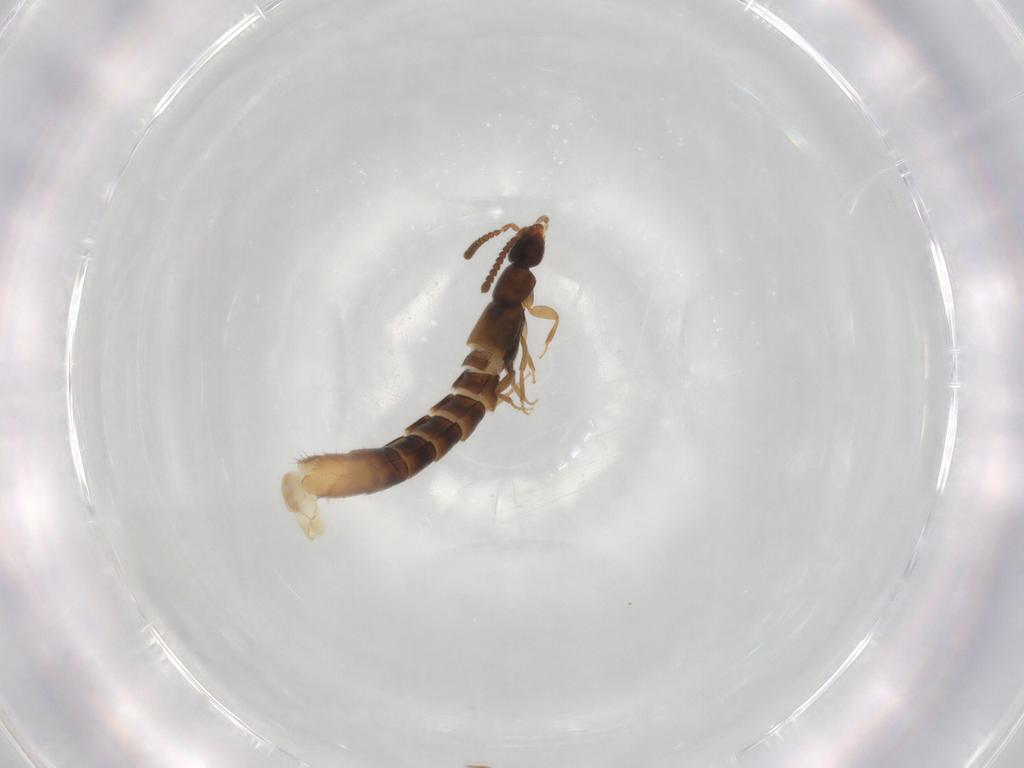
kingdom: Animalia
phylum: Arthropoda
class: Insecta
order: Coleoptera
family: Staphylinidae
